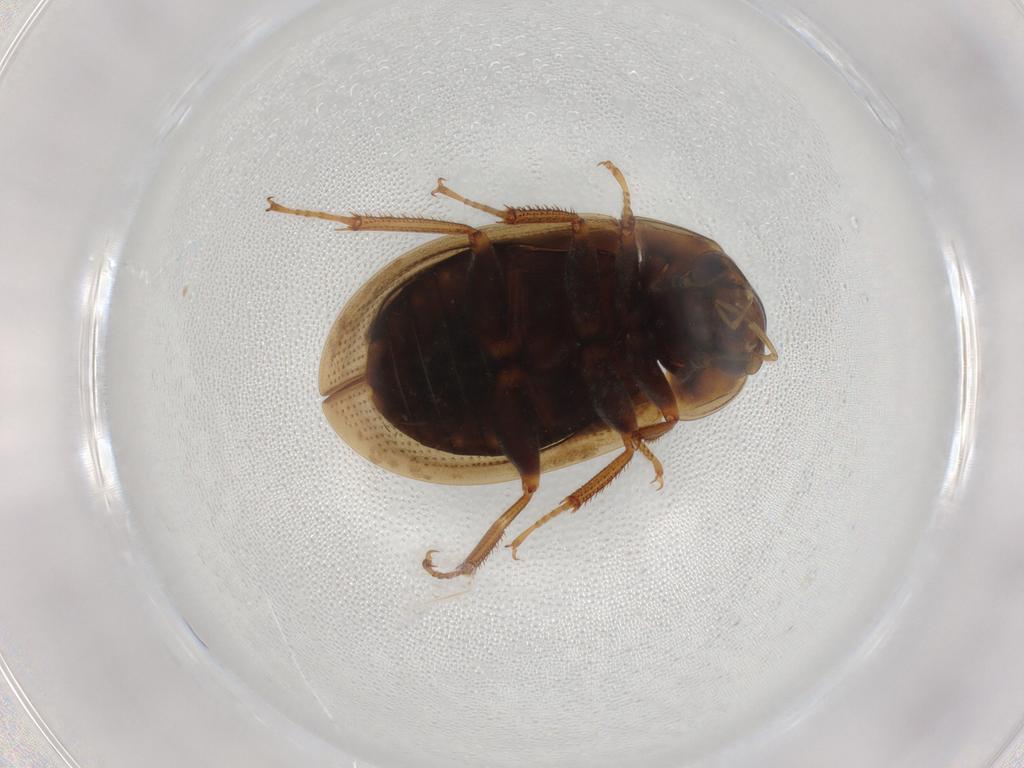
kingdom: Animalia
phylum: Arthropoda
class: Insecta
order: Coleoptera
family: Hydrophilidae
